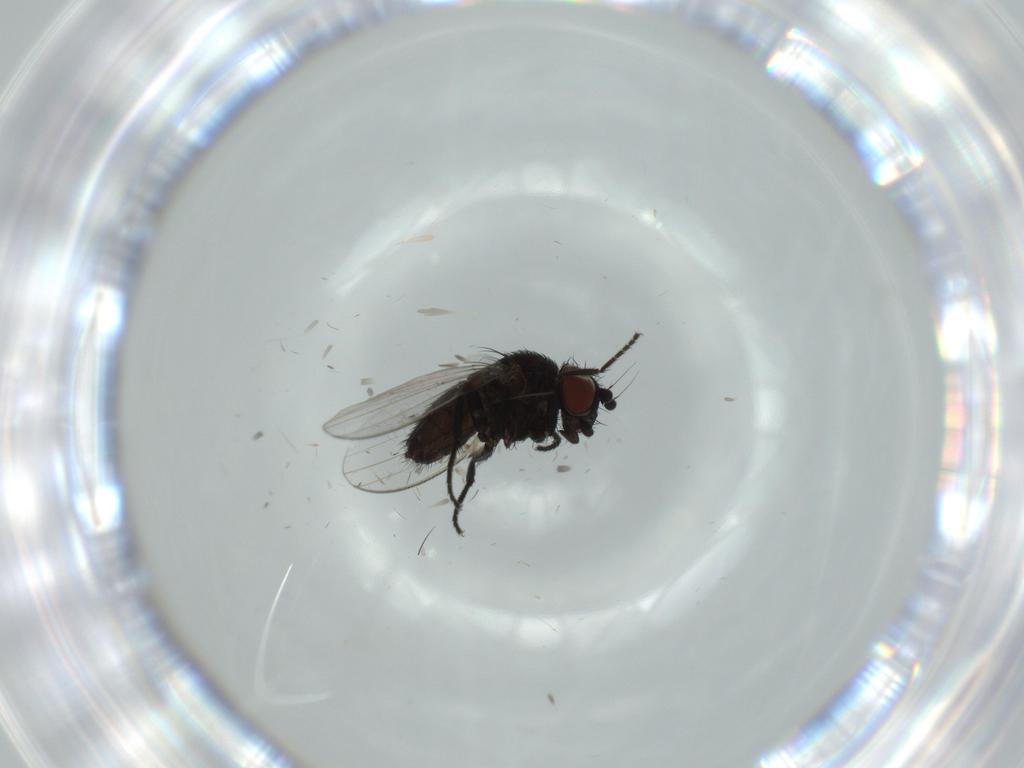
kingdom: Animalia
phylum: Arthropoda
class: Insecta
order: Diptera
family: Milichiidae
